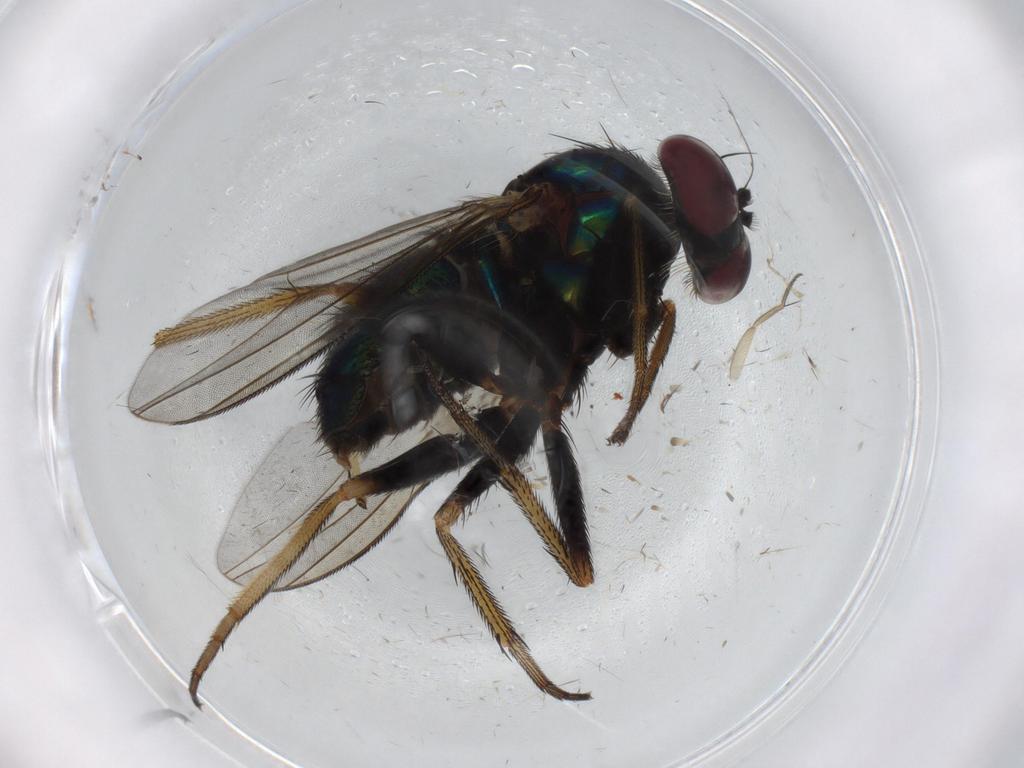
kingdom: Animalia
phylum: Arthropoda
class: Insecta
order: Diptera
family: Dolichopodidae
